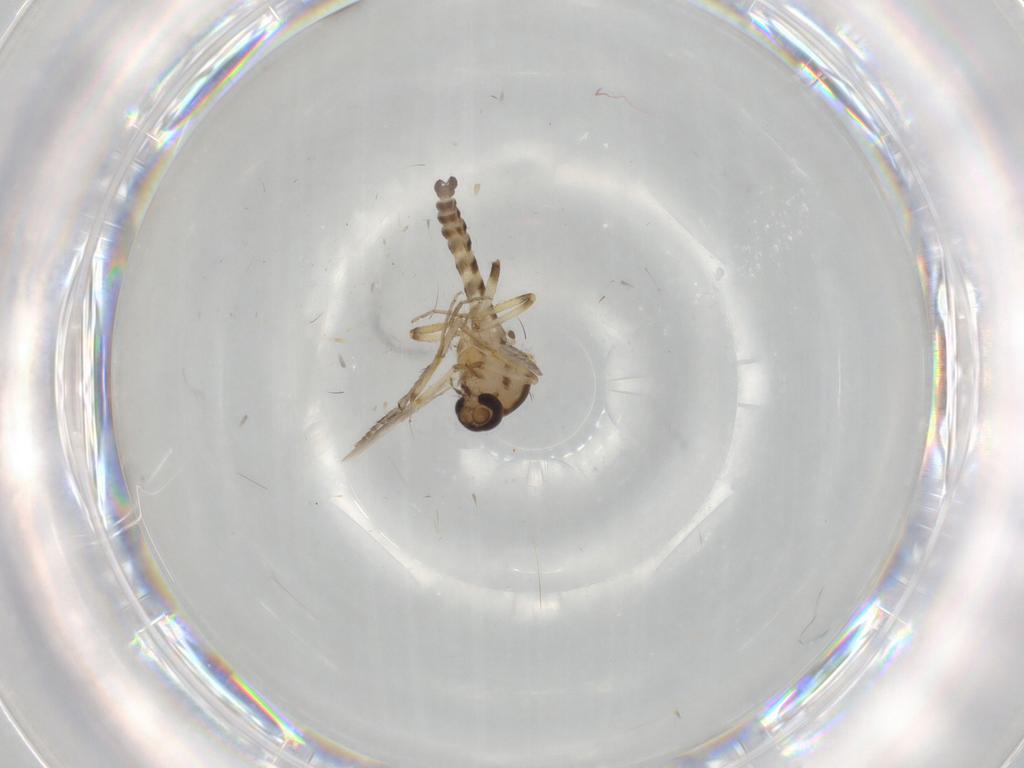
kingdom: Animalia
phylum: Arthropoda
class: Insecta
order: Diptera
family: Ceratopogonidae
